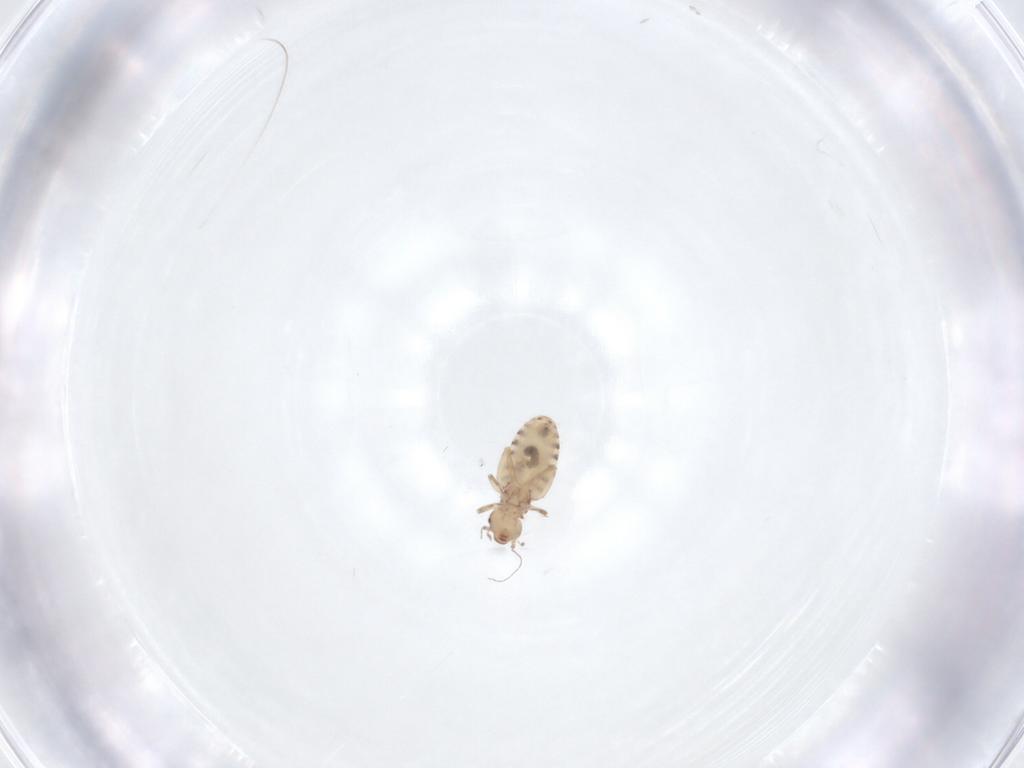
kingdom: Animalia
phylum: Arthropoda
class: Insecta
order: Psocodea
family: Liposcelididae
